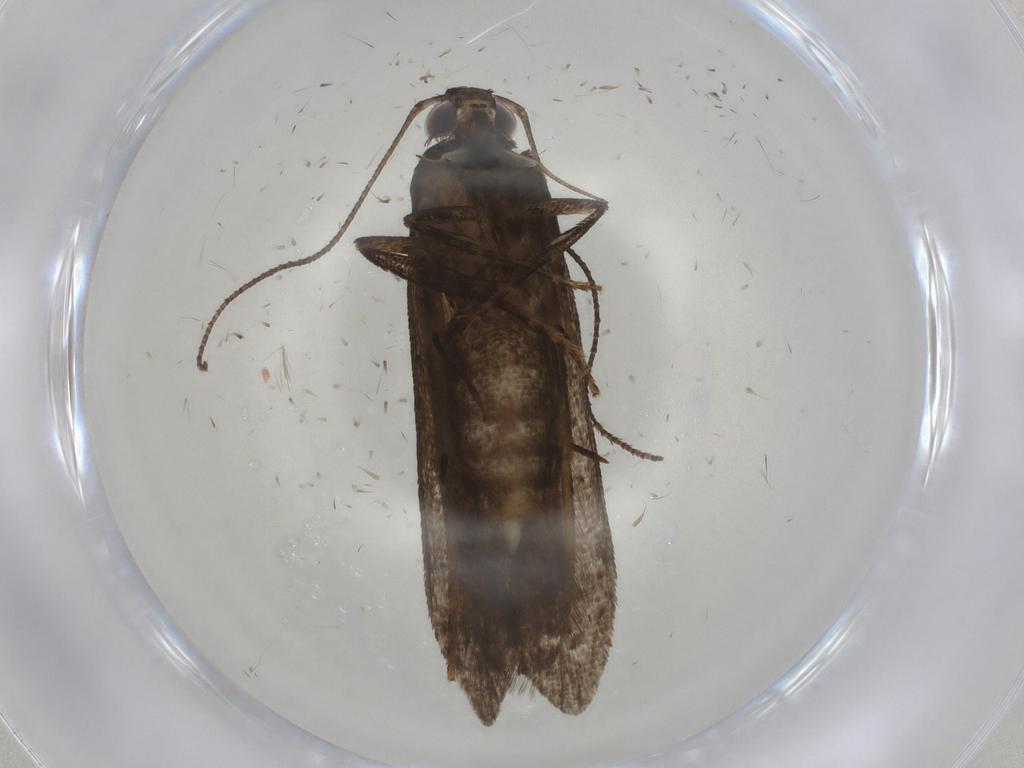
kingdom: Animalia
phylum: Arthropoda
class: Insecta
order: Lepidoptera
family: Gelechiidae
